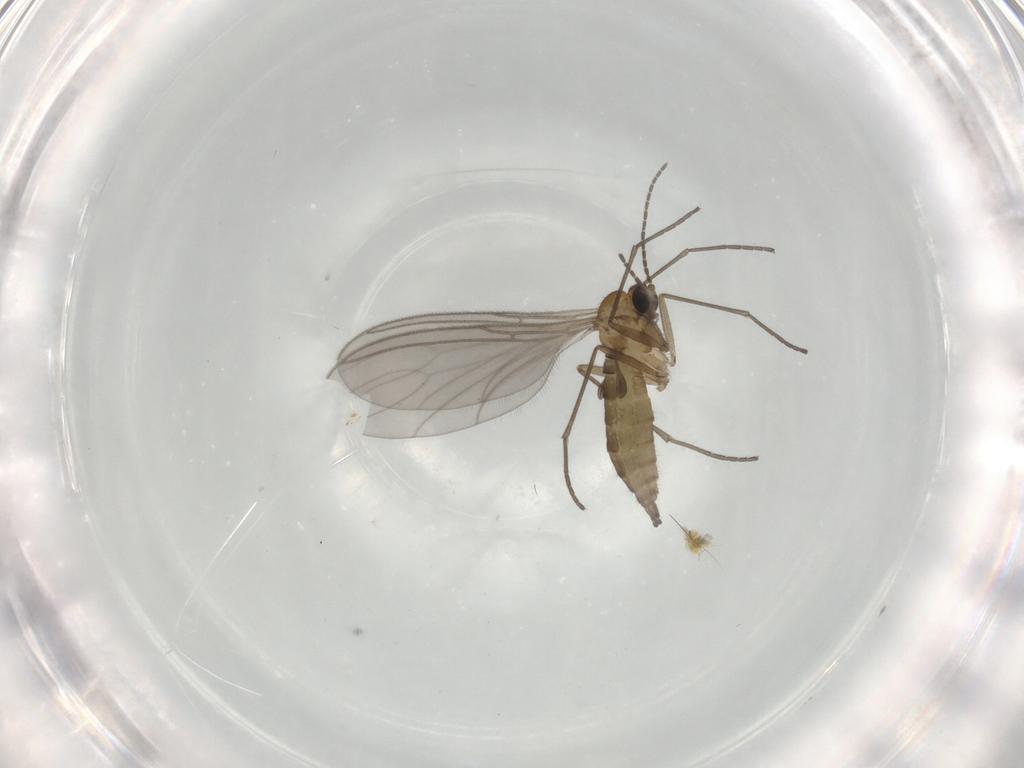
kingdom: Animalia
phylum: Arthropoda
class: Insecta
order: Diptera
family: Sciaridae
